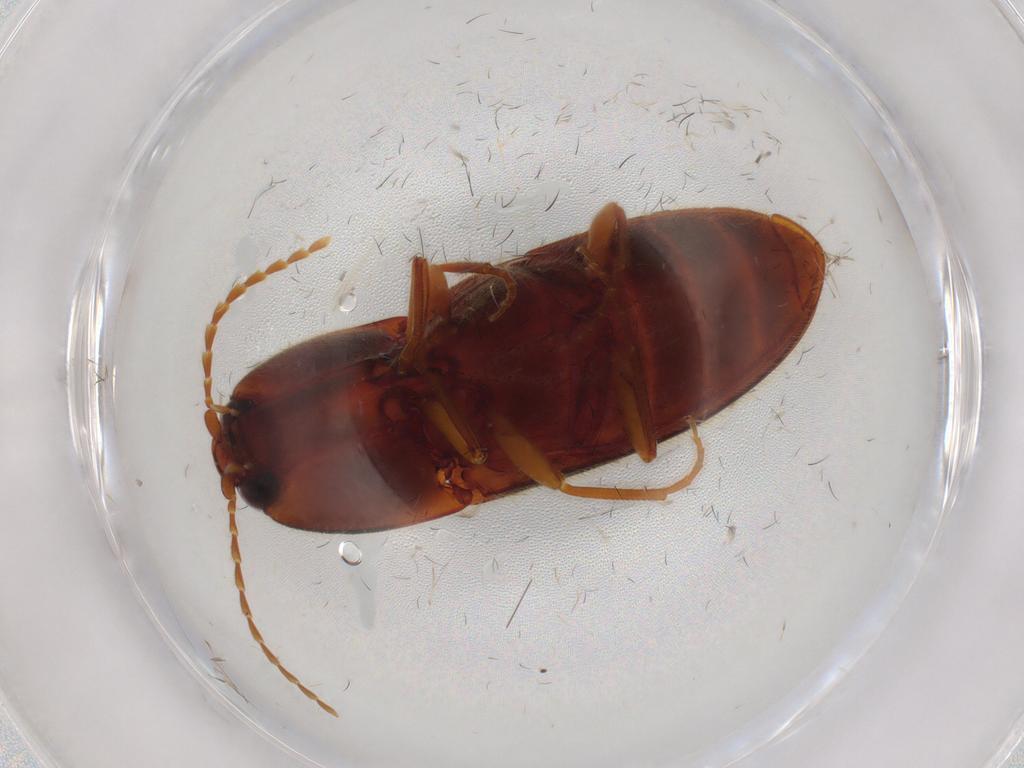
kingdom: Animalia
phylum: Arthropoda
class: Insecta
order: Coleoptera
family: Elateridae
